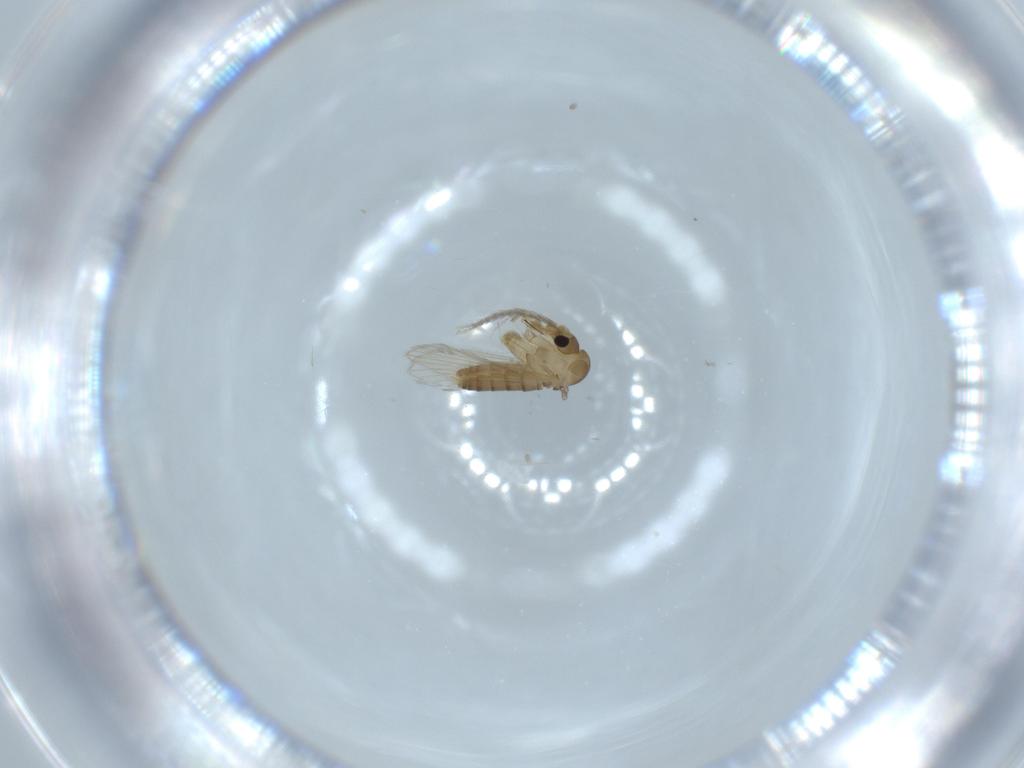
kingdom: Animalia
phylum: Arthropoda
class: Insecta
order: Diptera
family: Psychodidae
